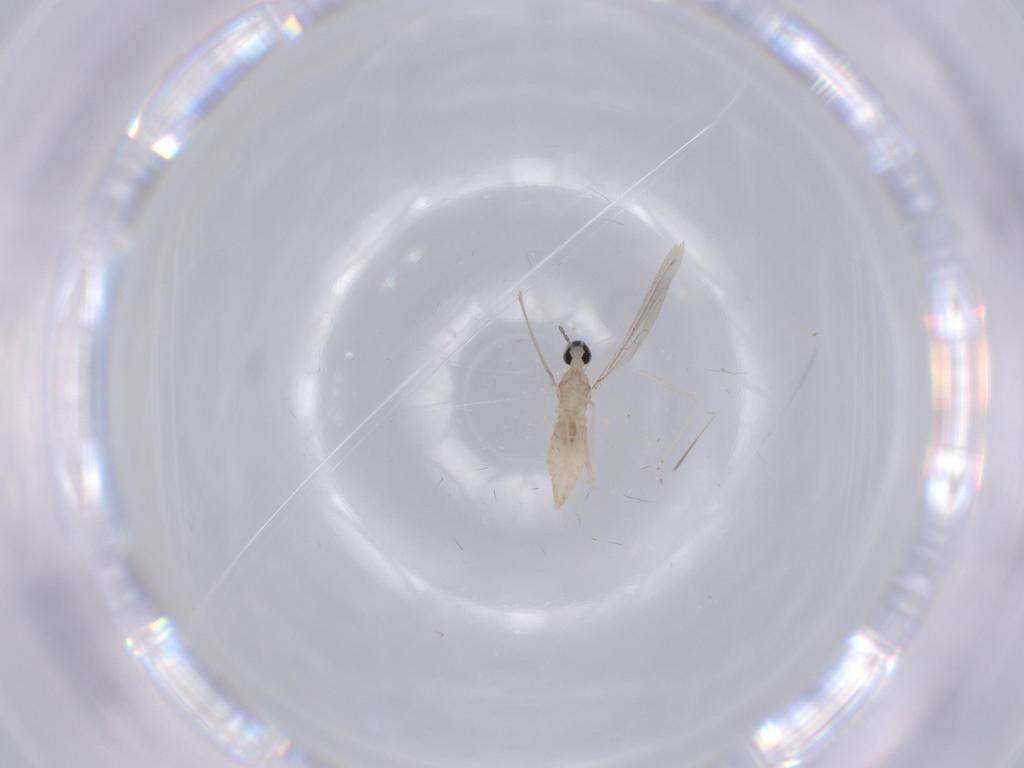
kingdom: Animalia
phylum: Arthropoda
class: Insecta
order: Diptera
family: Cecidomyiidae
